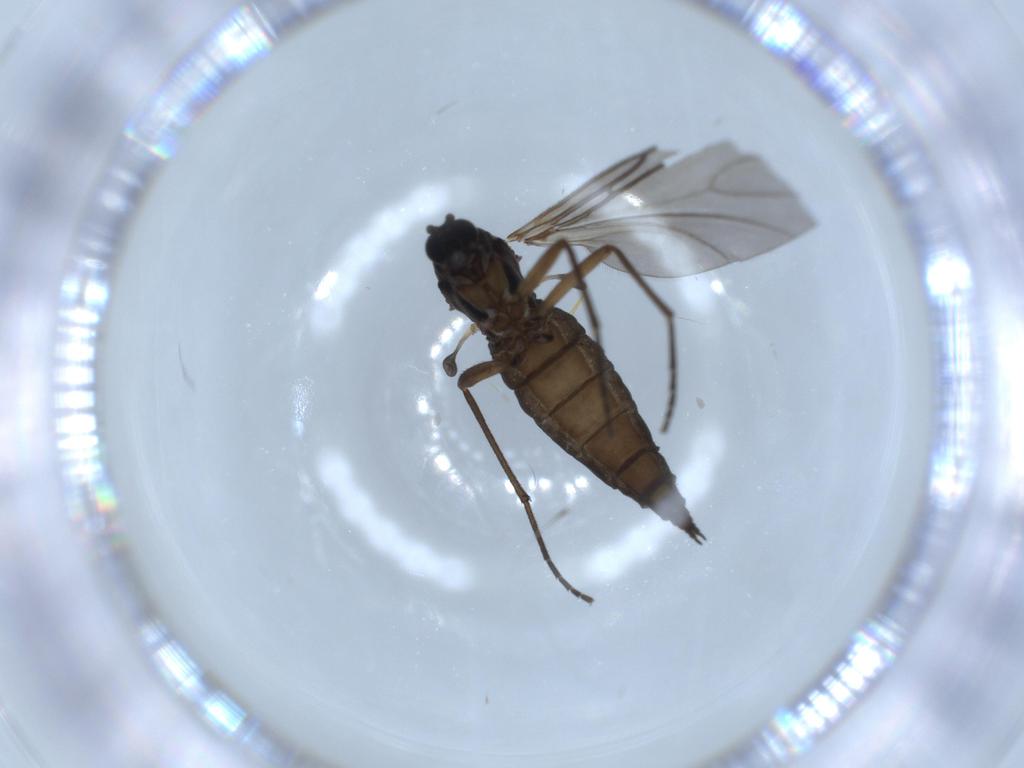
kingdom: Animalia
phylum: Arthropoda
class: Insecta
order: Diptera
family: Sciaridae
